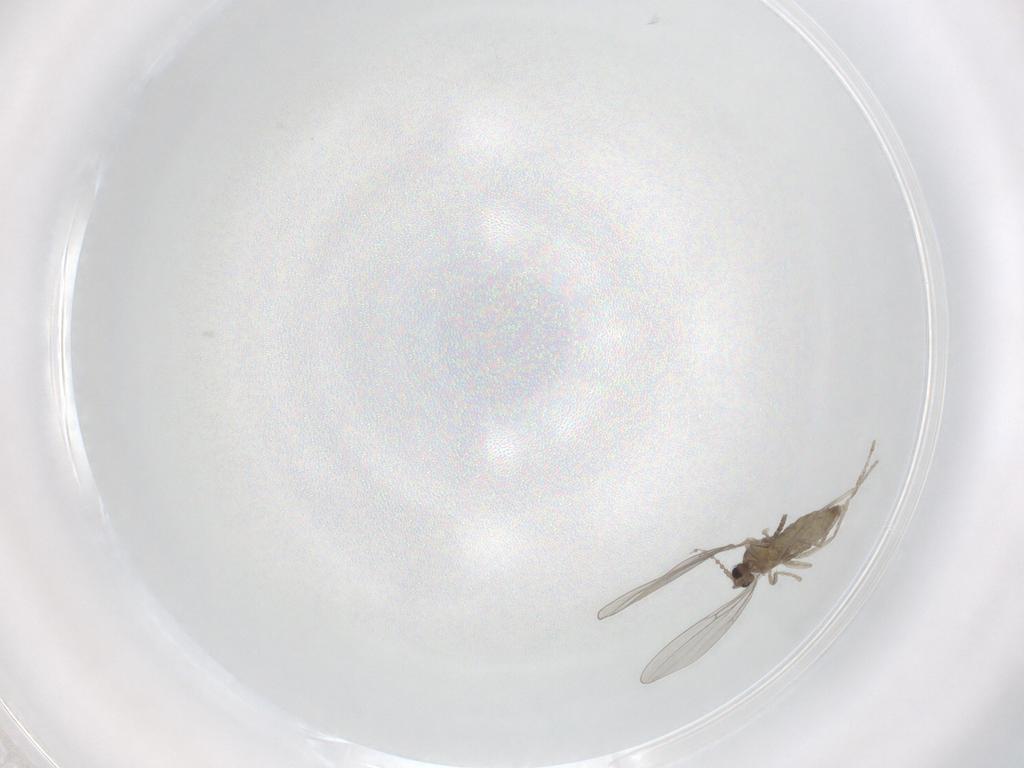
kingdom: Animalia
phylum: Arthropoda
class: Insecta
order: Diptera
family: Cecidomyiidae
